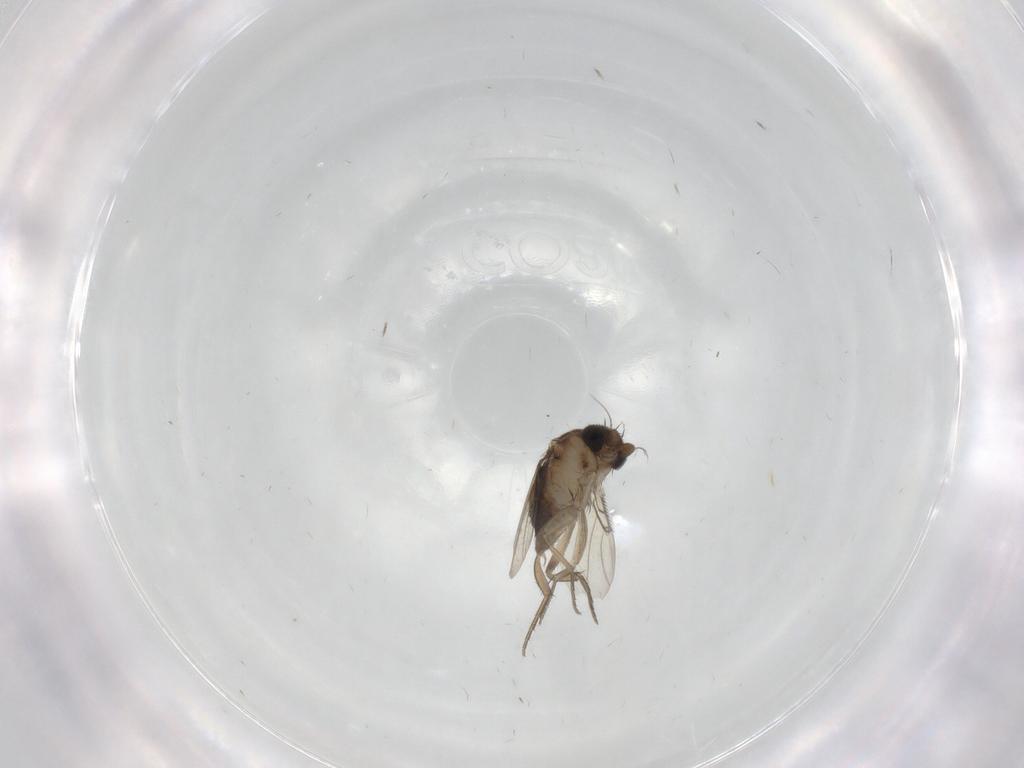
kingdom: Animalia
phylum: Arthropoda
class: Insecta
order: Diptera
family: Phoridae
